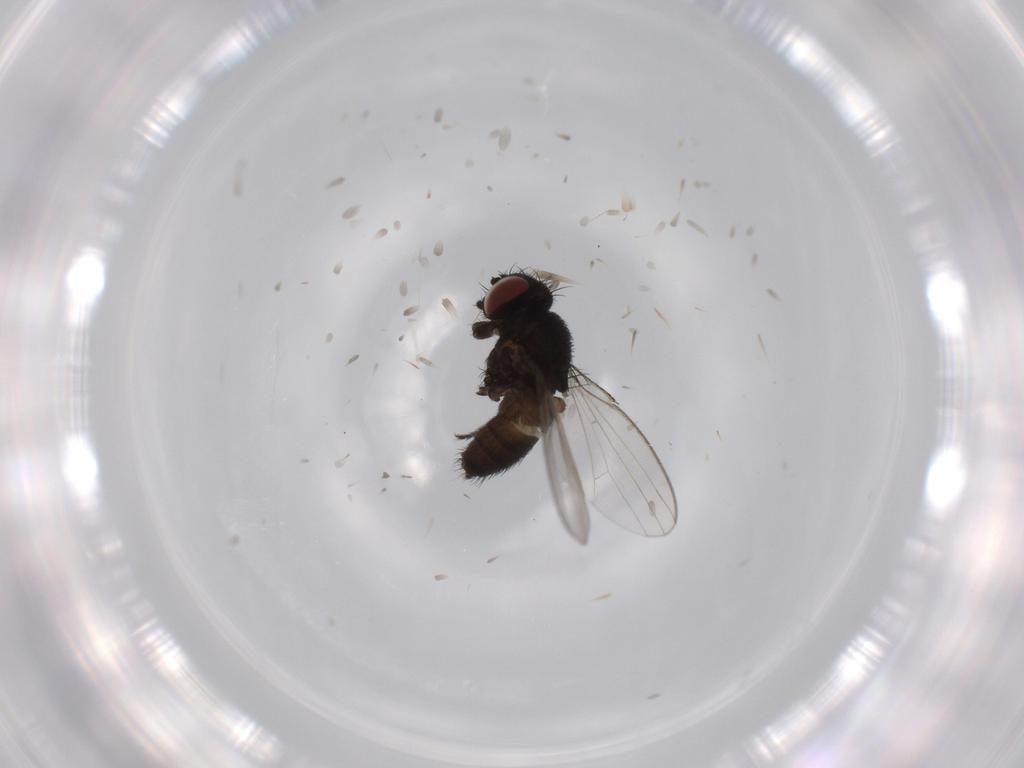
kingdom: Animalia
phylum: Arthropoda
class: Insecta
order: Diptera
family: Milichiidae
